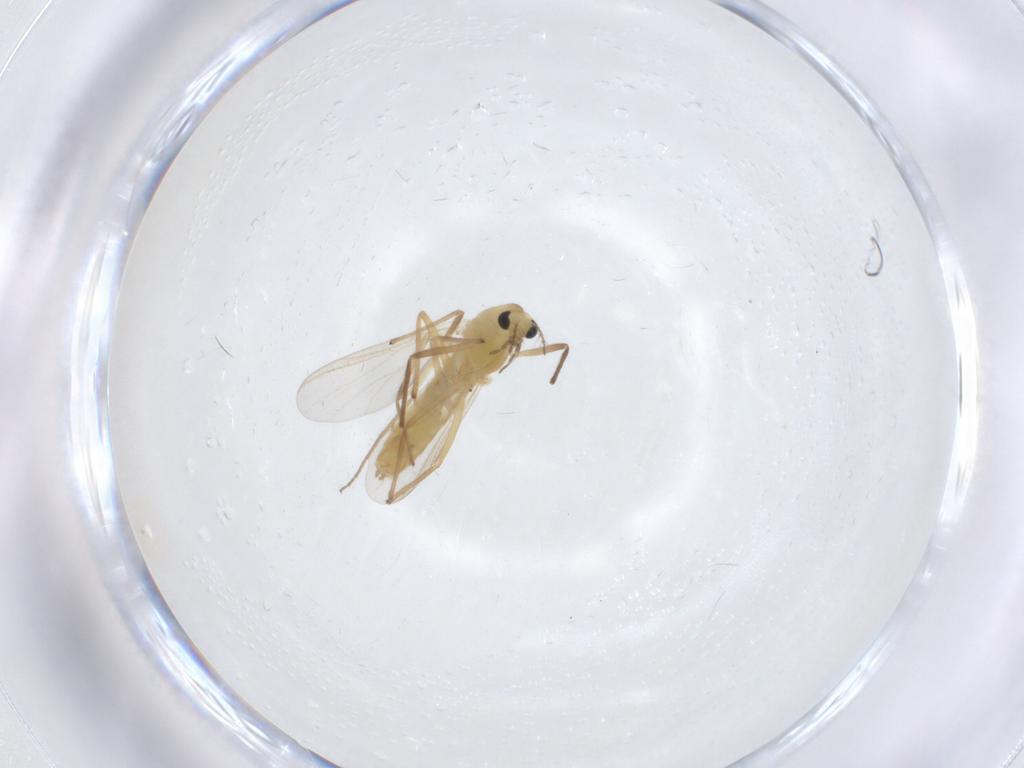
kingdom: Animalia
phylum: Arthropoda
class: Insecta
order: Diptera
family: Chironomidae
